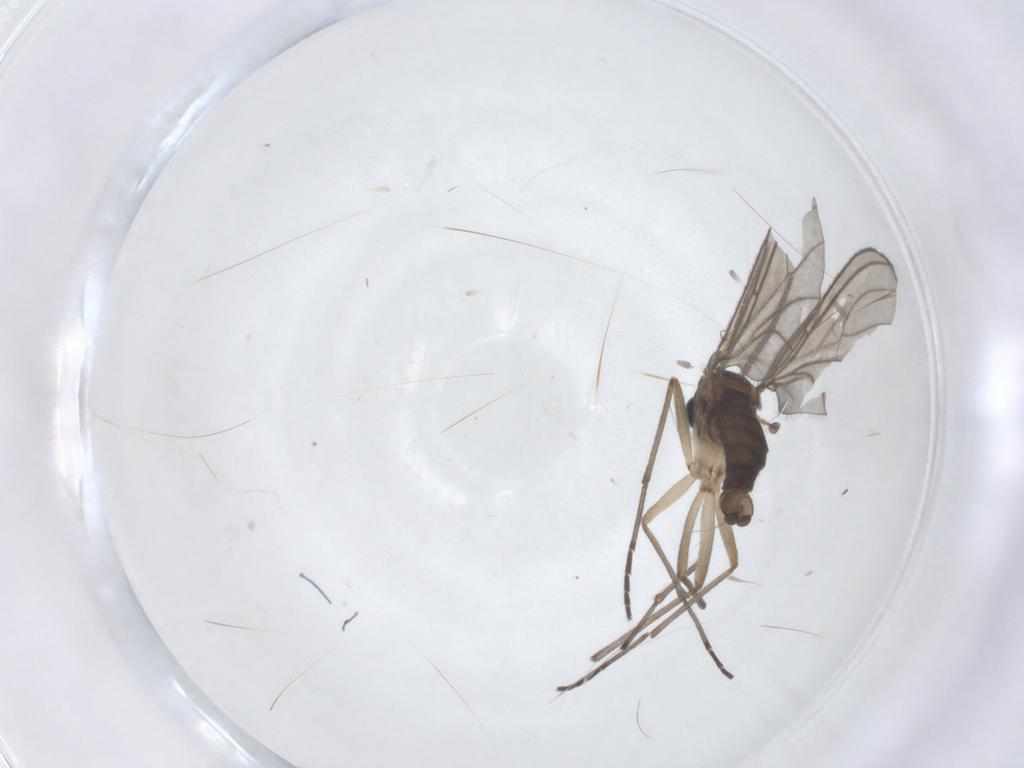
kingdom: Animalia
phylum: Arthropoda
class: Insecta
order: Diptera
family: Sciaridae
